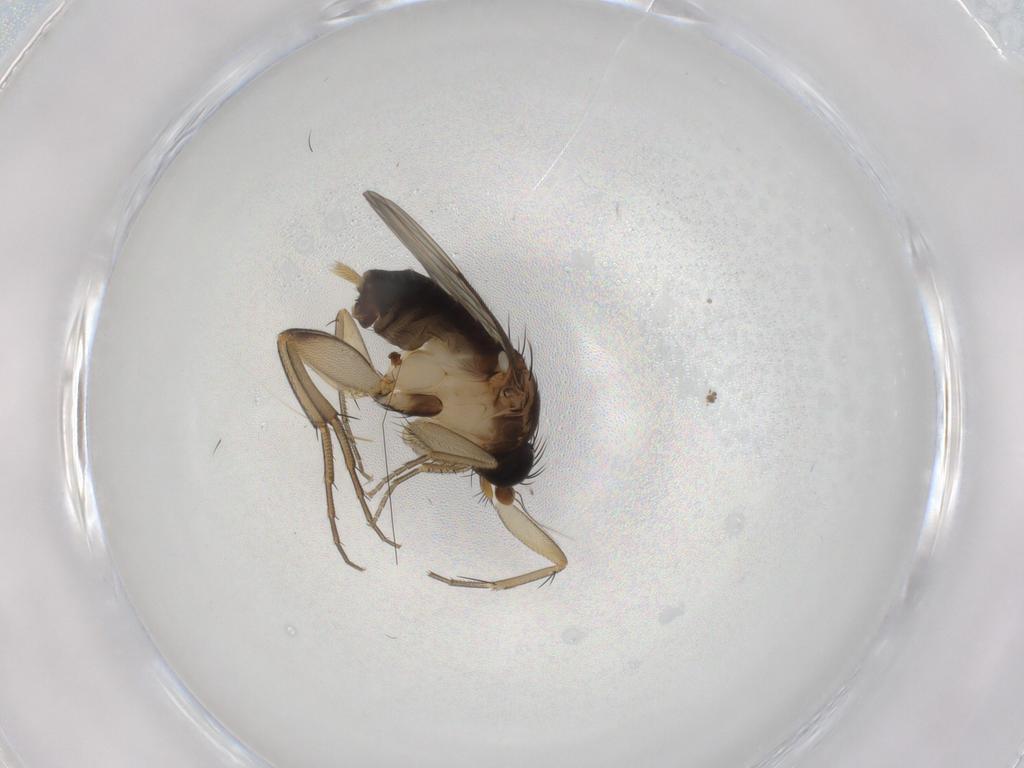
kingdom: Animalia
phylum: Arthropoda
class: Insecta
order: Diptera
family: Phoridae
